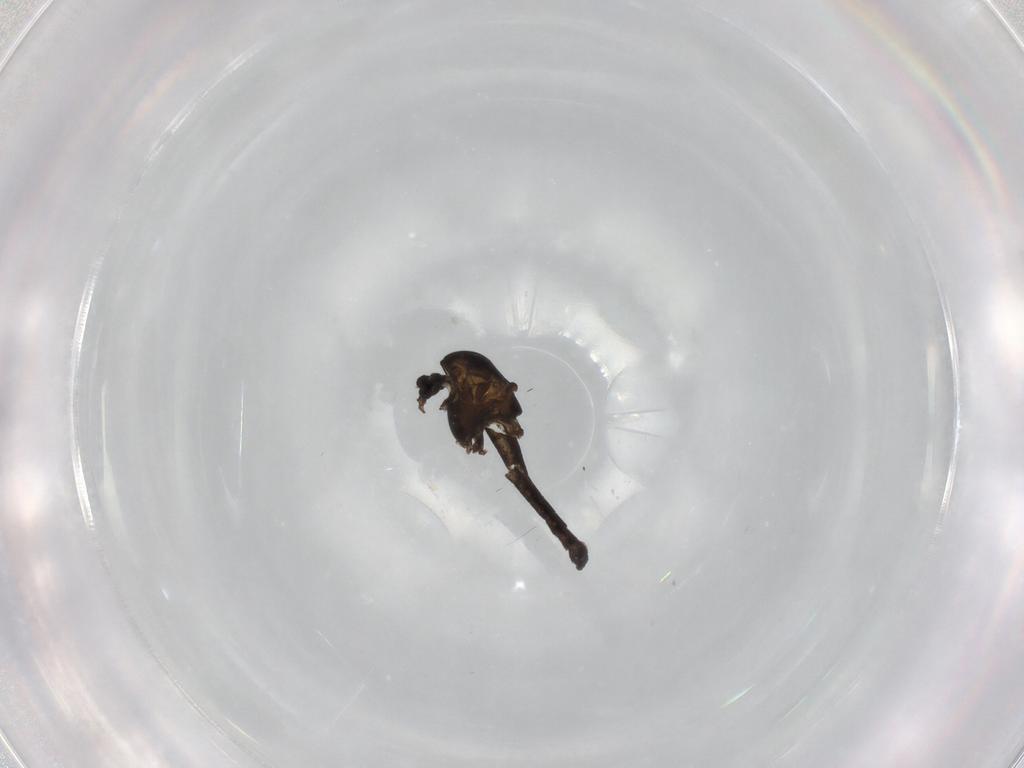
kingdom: Animalia
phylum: Arthropoda
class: Insecta
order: Diptera
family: Chironomidae
